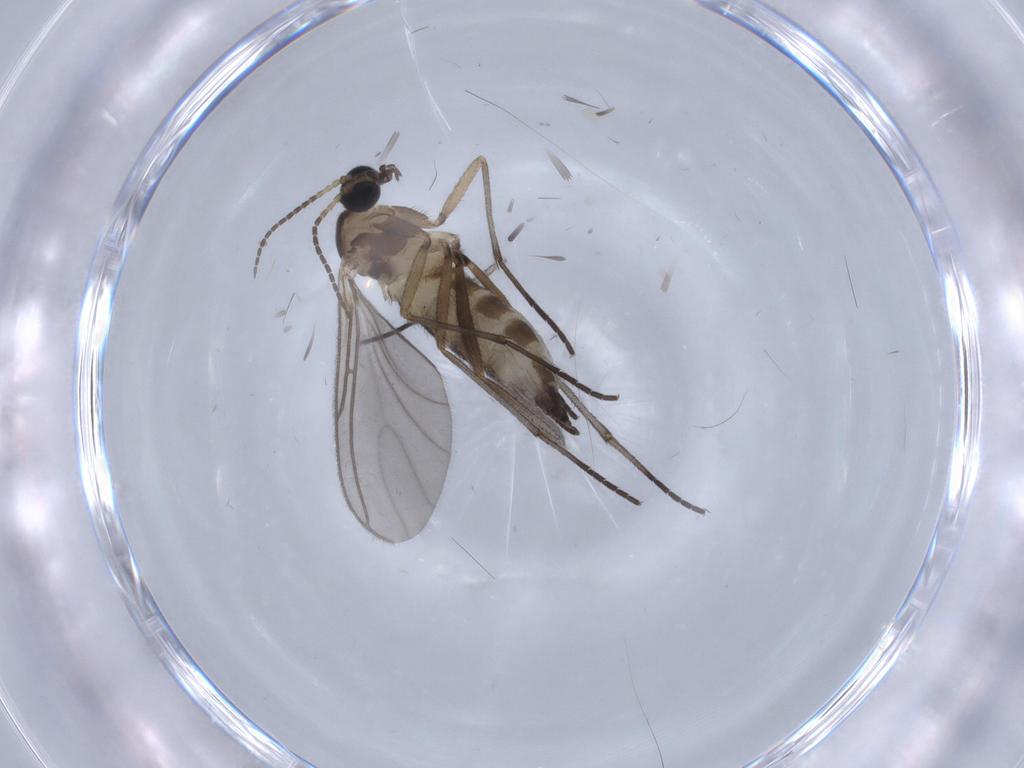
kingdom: Animalia
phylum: Arthropoda
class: Insecta
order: Diptera
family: Sciaridae
